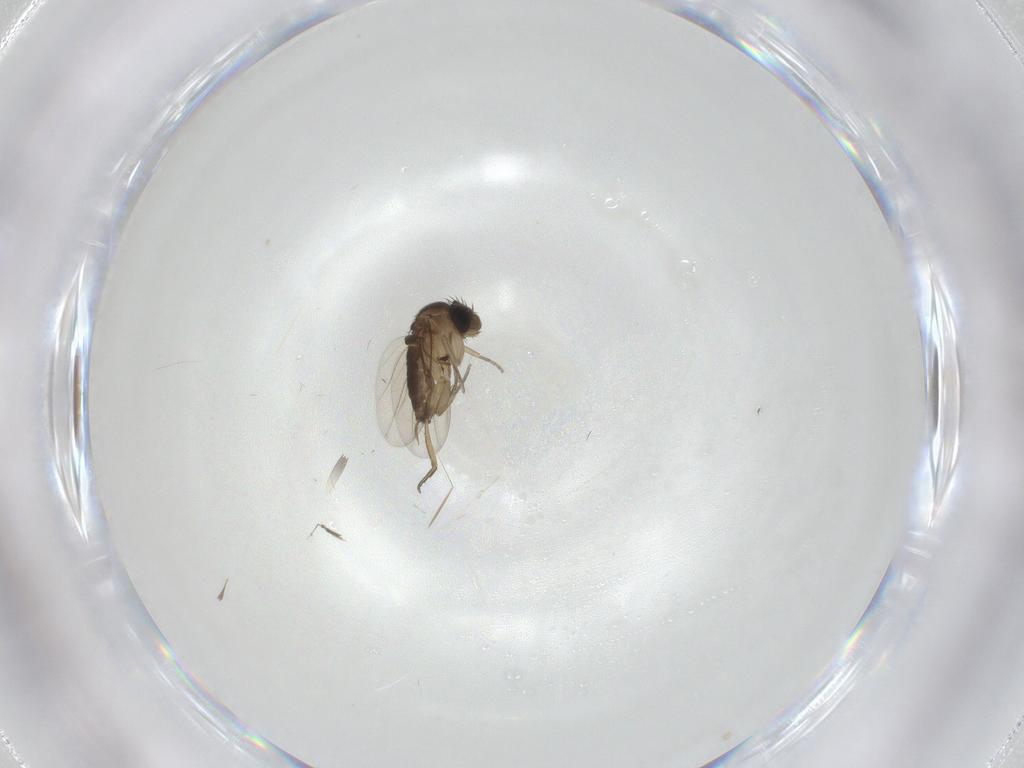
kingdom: Animalia
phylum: Arthropoda
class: Insecta
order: Diptera
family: Phoridae
